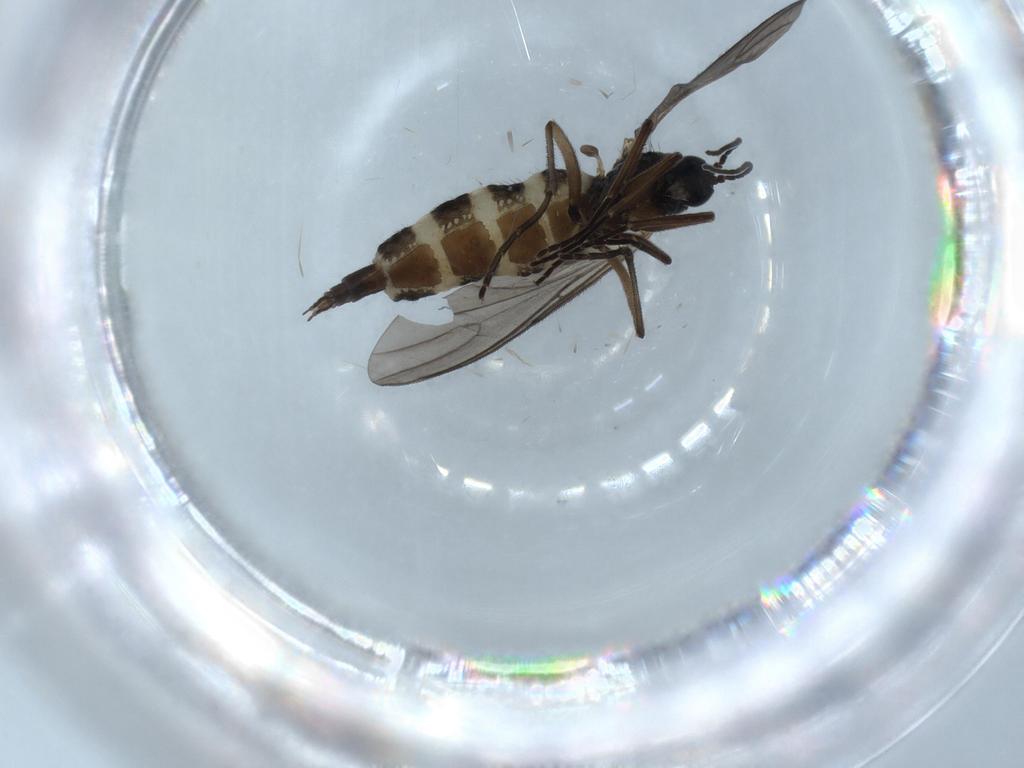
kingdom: Animalia
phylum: Arthropoda
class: Insecta
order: Diptera
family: Sciaridae
